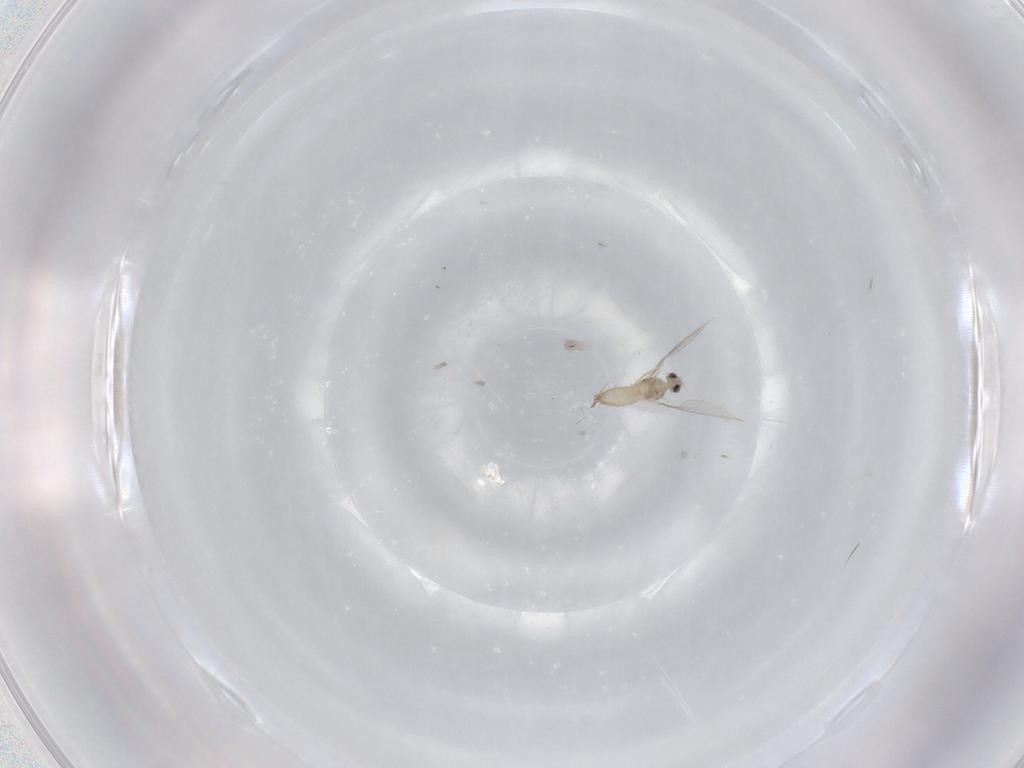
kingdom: Animalia
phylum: Arthropoda
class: Insecta
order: Diptera
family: Cecidomyiidae
